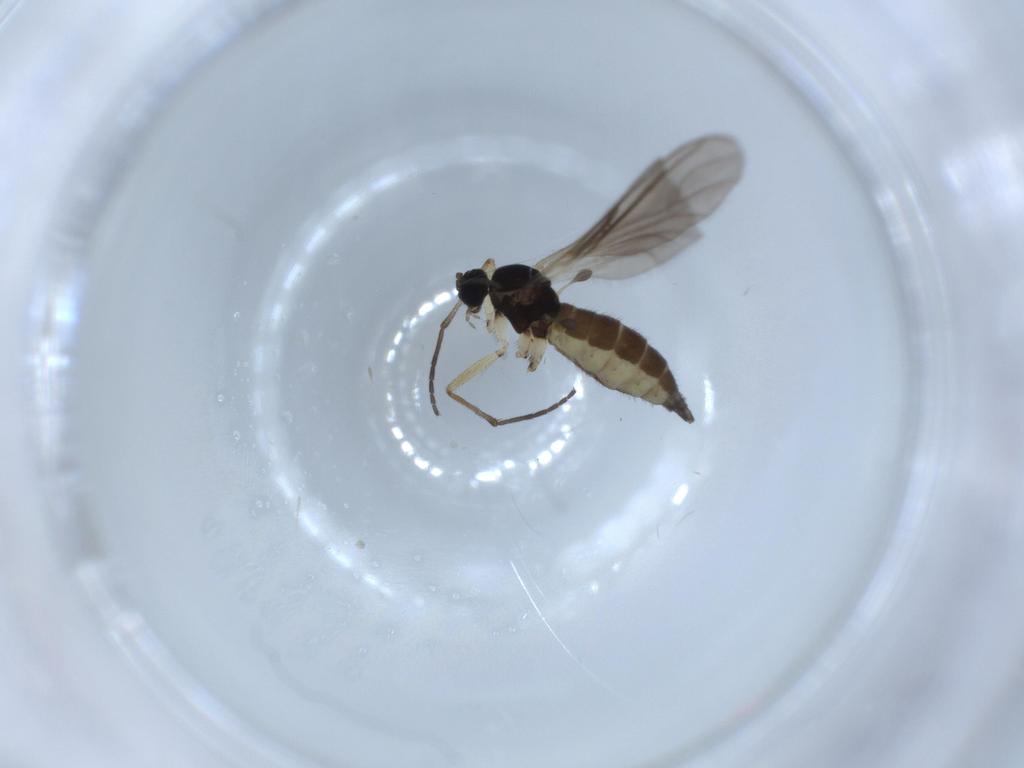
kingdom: Animalia
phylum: Arthropoda
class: Insecta
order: Diptera
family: Sciaridae
